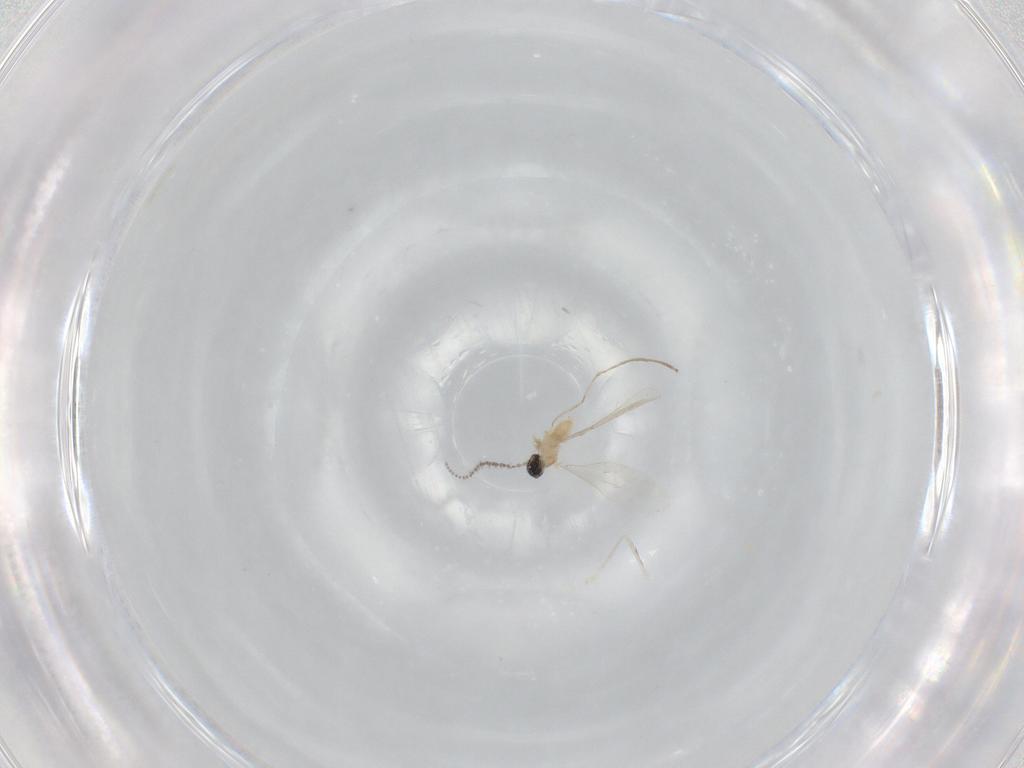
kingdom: Animalia
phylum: Arthropoda
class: Insecta
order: Diptera
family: Cecidomyiidae
